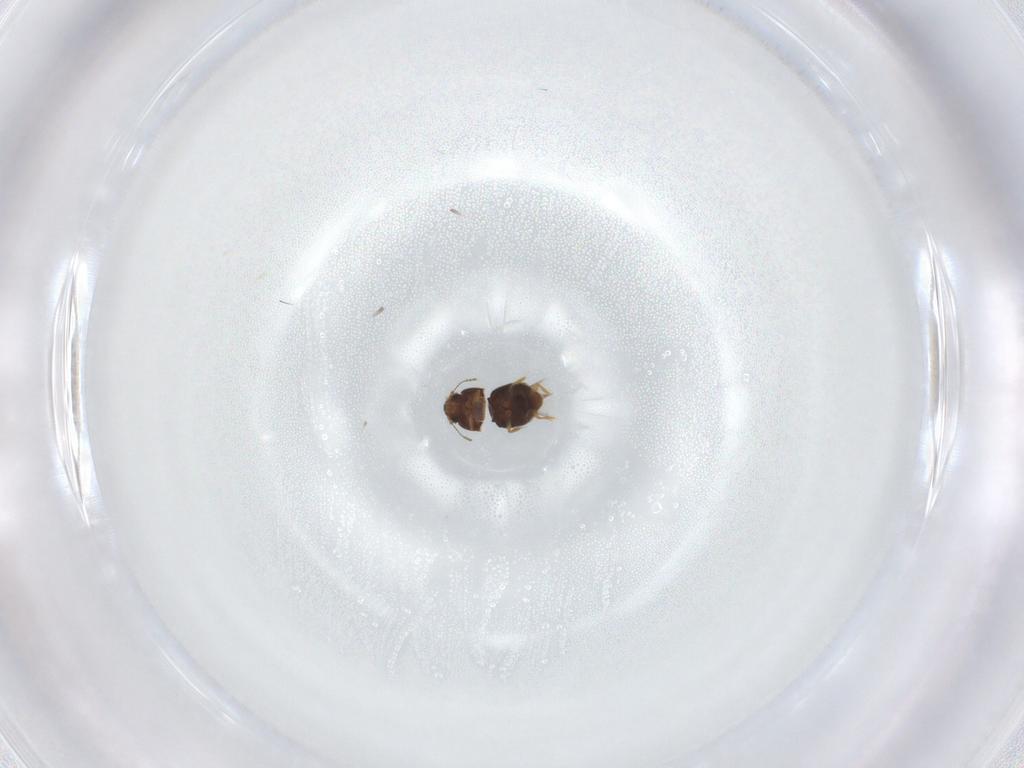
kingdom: Animalia
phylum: Arthropoda
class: Insecta
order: Coleoptera
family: Ptiliidae
